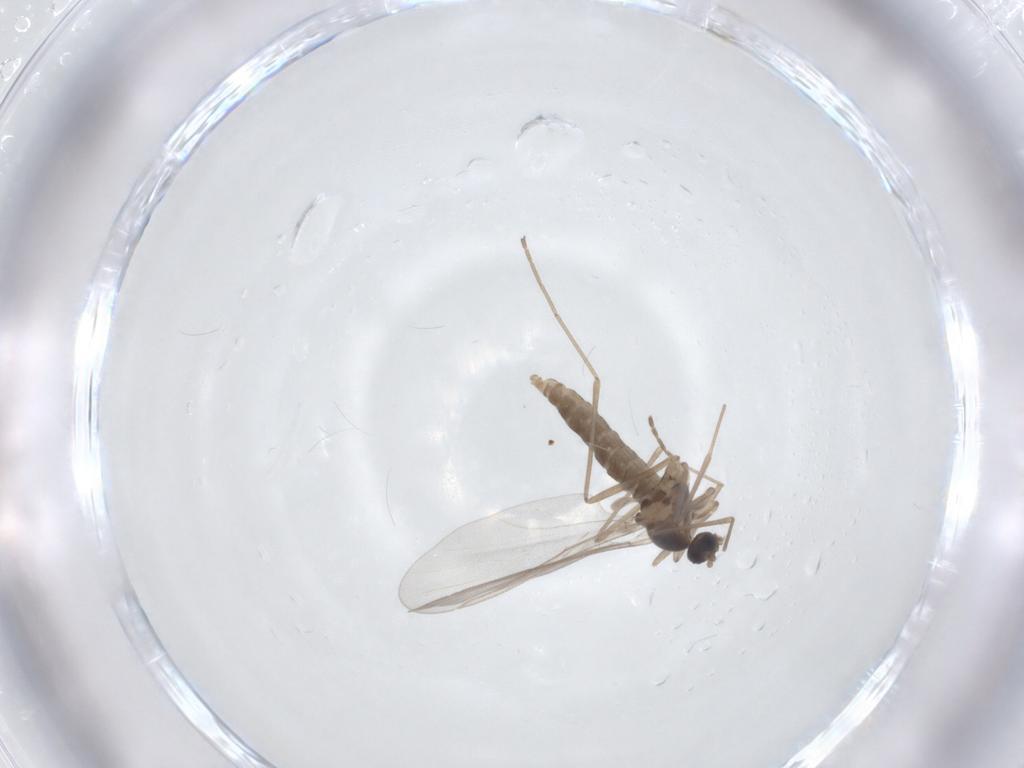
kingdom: Animalia
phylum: Arthropoda
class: Insecta
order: Diptera
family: Cecidomyiidae
